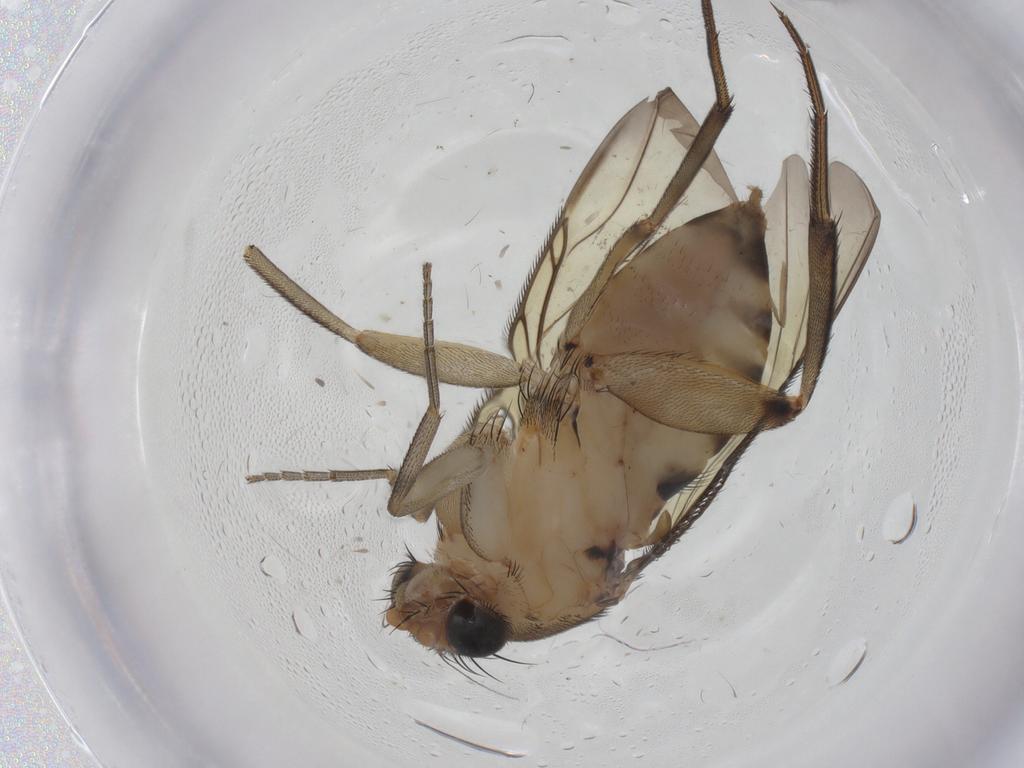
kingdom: Animalia
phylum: Arthropoda
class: Insecta
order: Diptera
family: Phoridae
